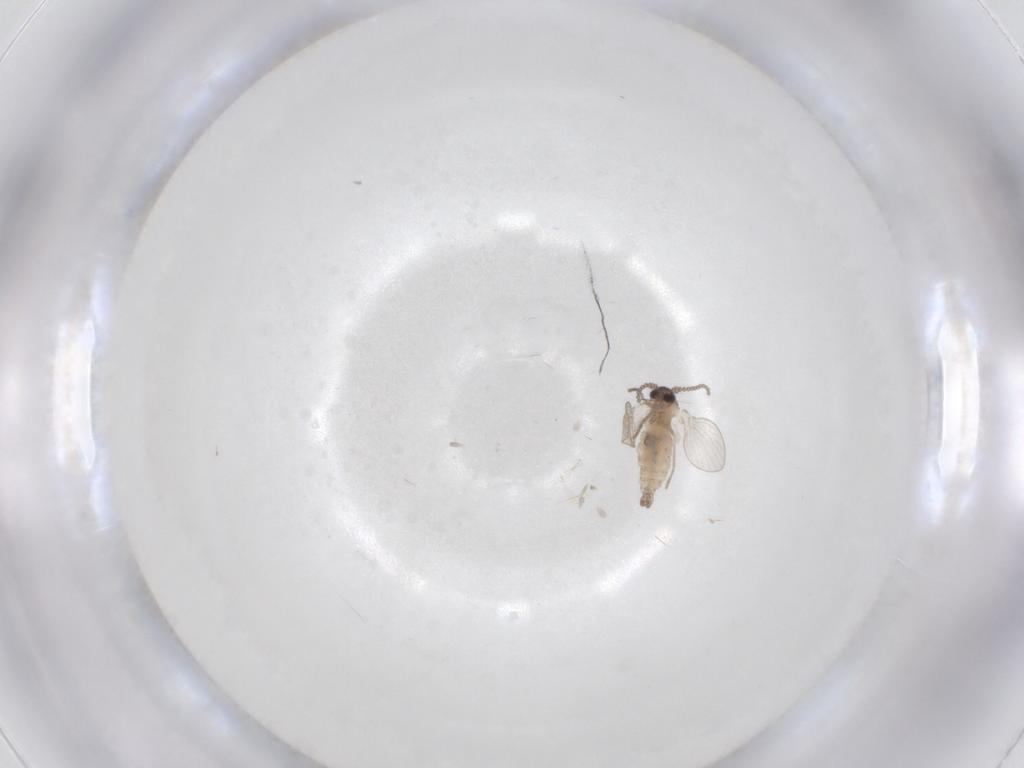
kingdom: Animalia
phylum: Arthropoda
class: Insecta
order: Diptera
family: Psychodidae
